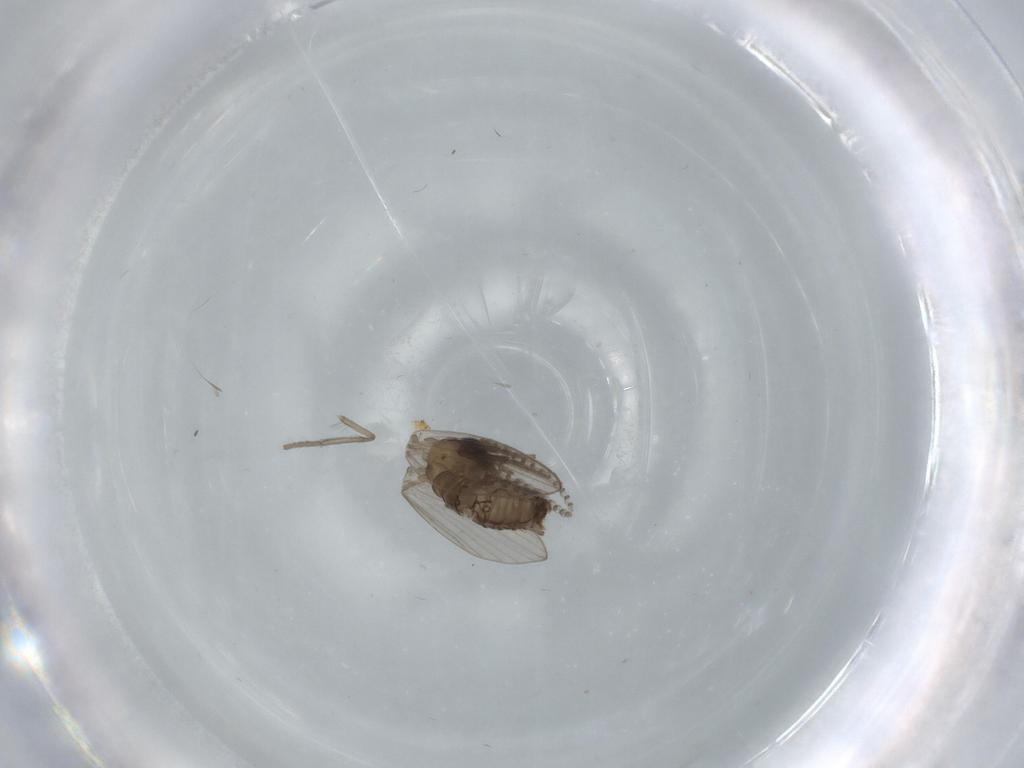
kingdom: Animalia
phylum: Arthropoda
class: Insecta
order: Diptera
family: Psychodidae
